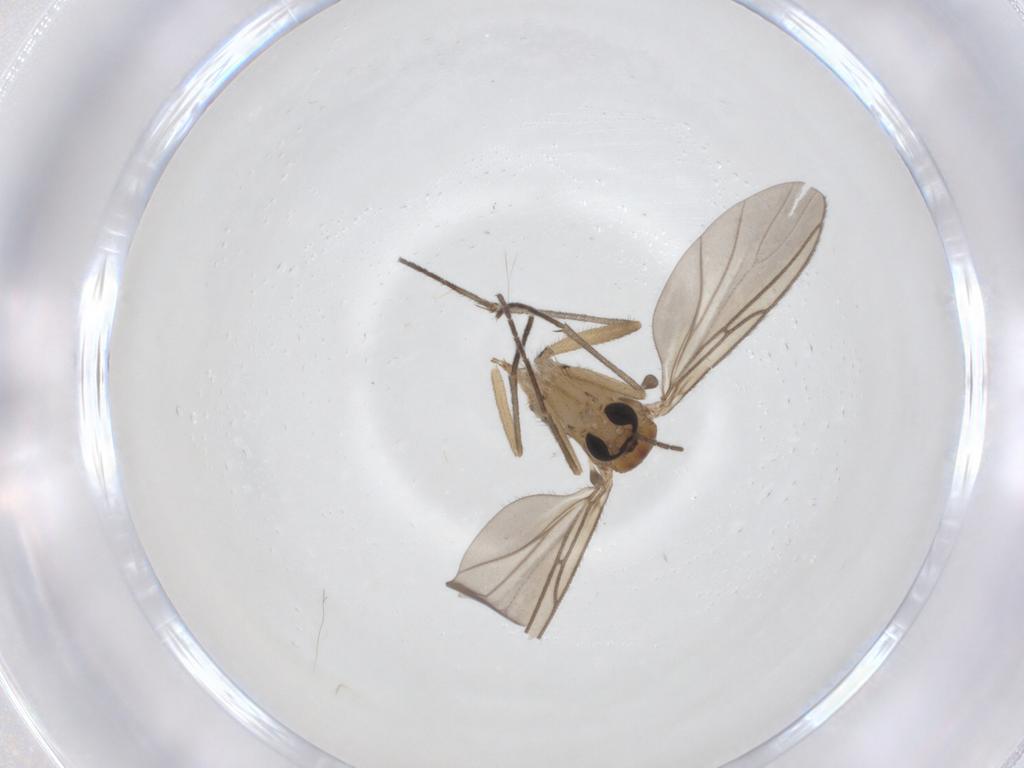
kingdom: Animalia
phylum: Arthropoda
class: Insecta
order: Diptera
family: Sciaridae
